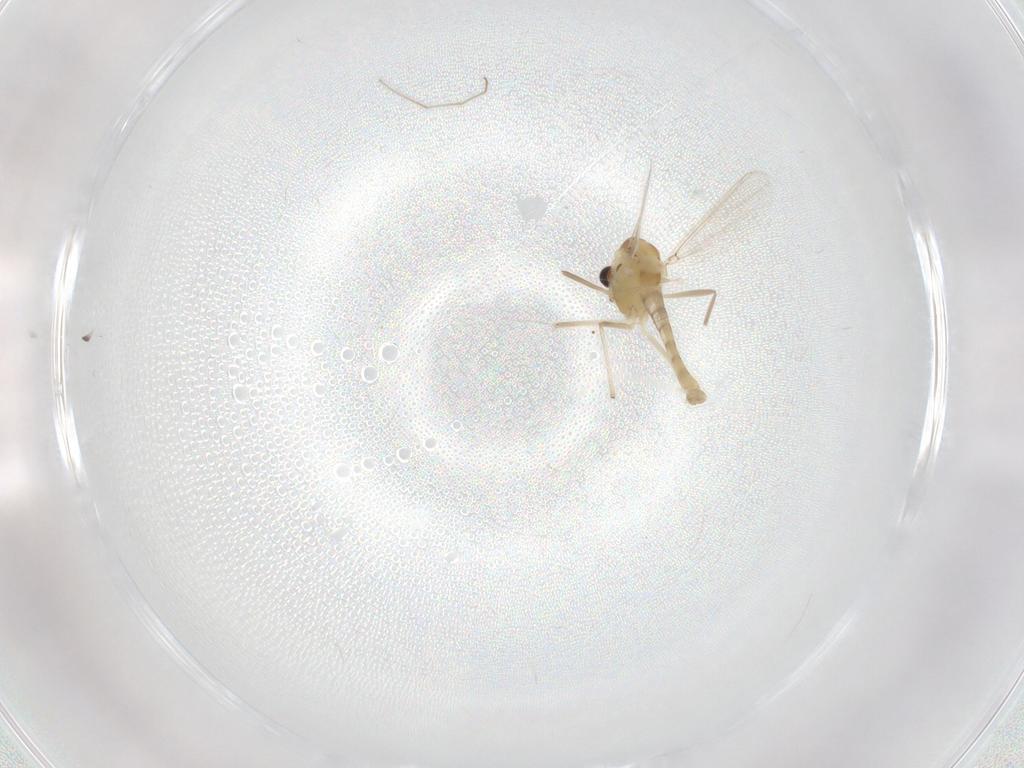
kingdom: Animalia
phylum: Arthropoda
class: Insecta
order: Diptera
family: Chironomidae
